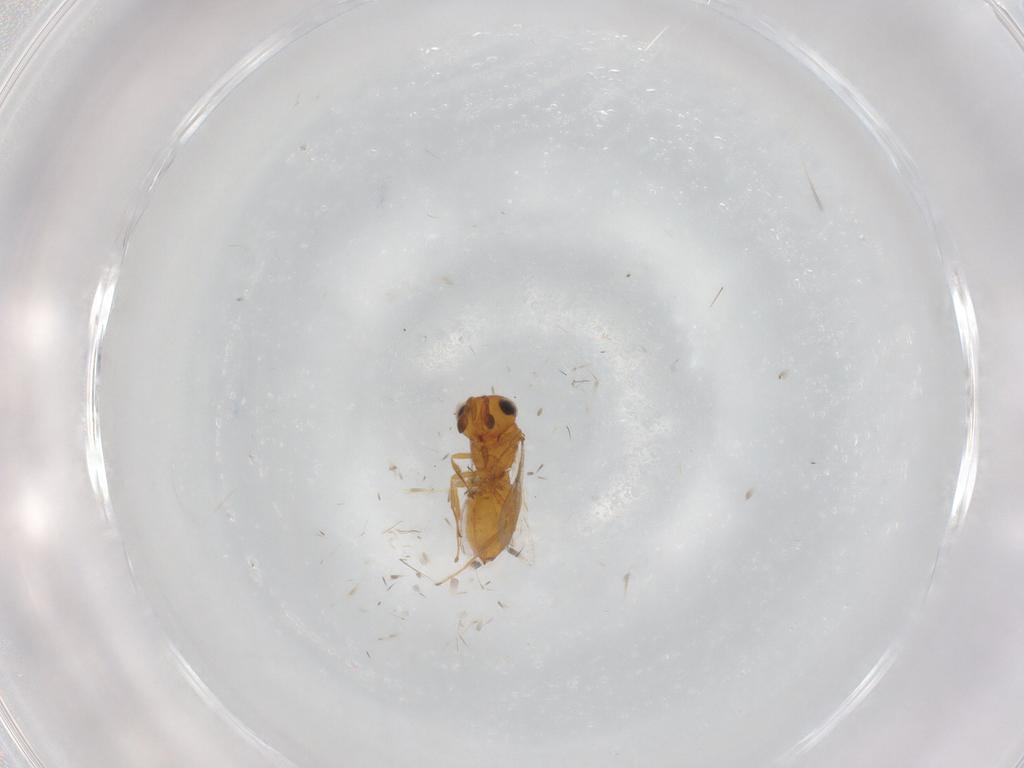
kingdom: Animalia
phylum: Arthropoda
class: Insecta
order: Hymenoptera
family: Scelionidae
